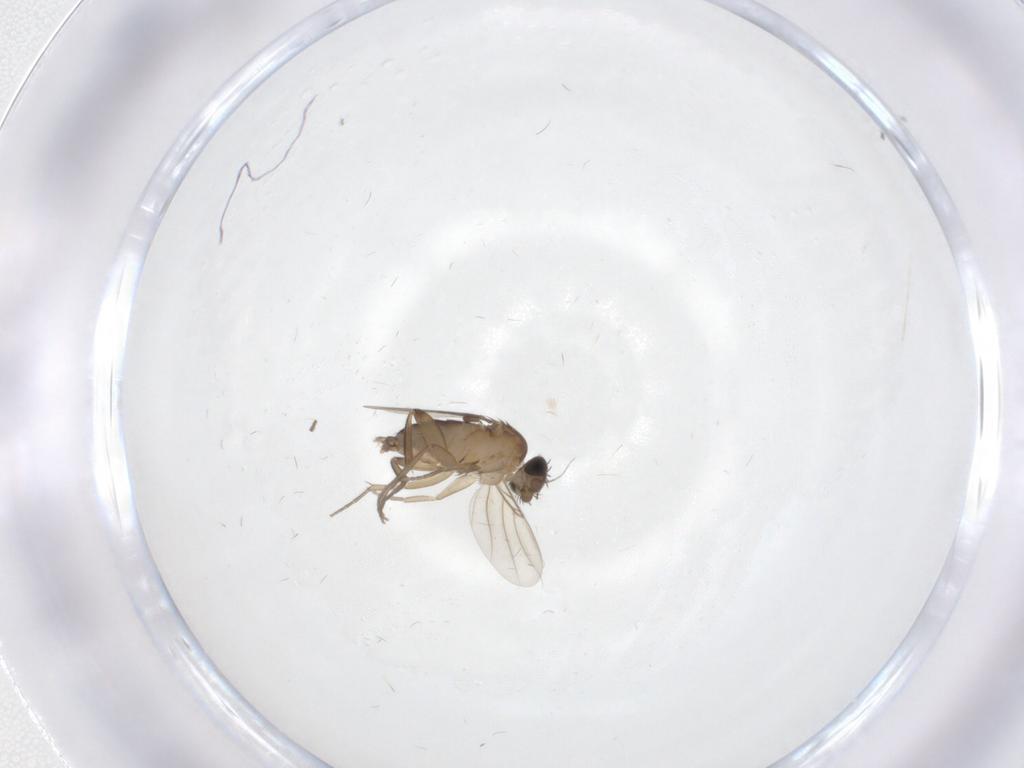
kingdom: Animalia
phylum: Arthropoda
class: Insecta
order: Diptera
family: Phoridae
